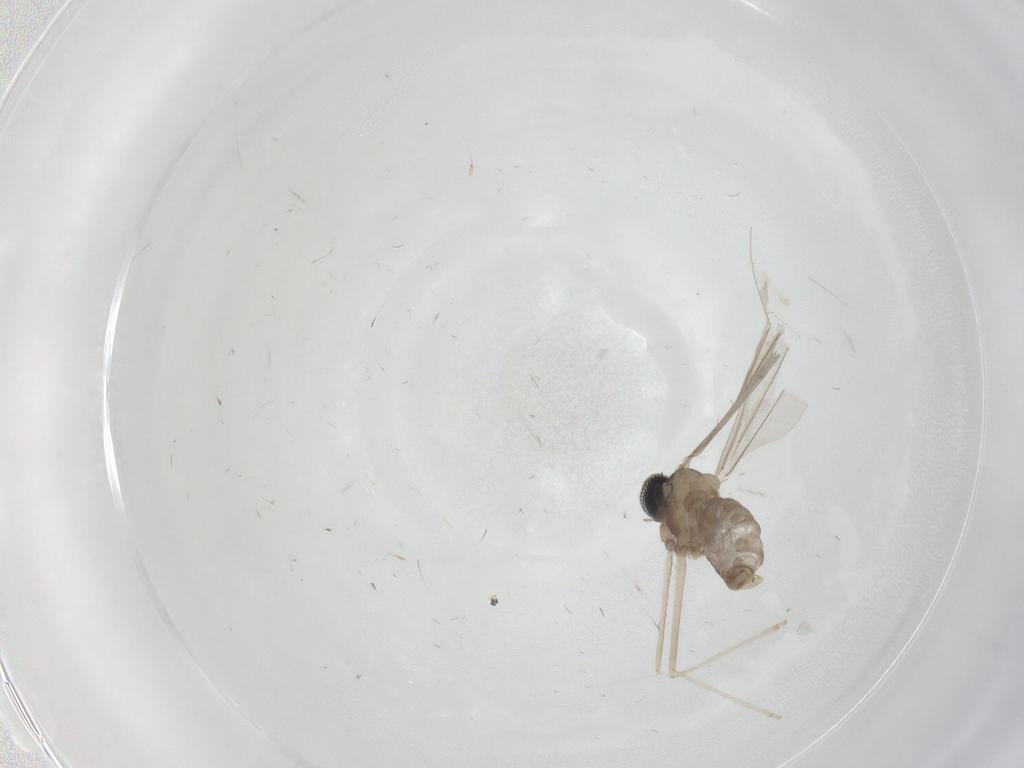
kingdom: Animalia
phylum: Arthropoda
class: Insecta
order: Diptera
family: Cecidomyiidae
